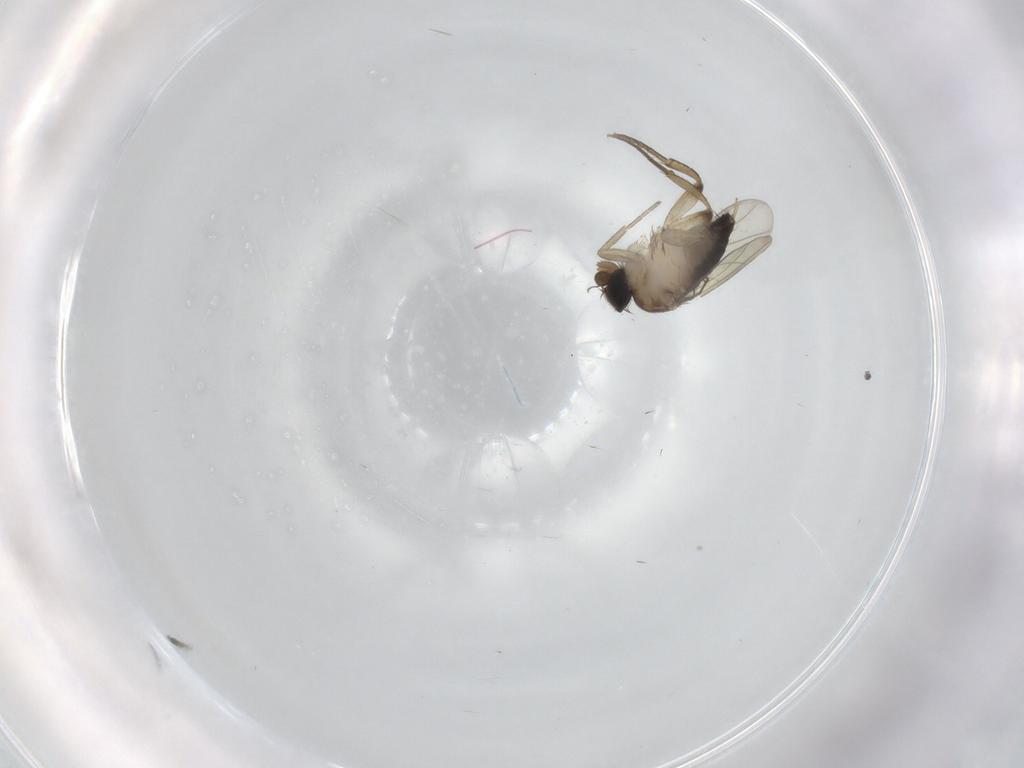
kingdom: Animalia
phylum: Arthropoda
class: Insecta
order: Diptera
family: Phoridae
